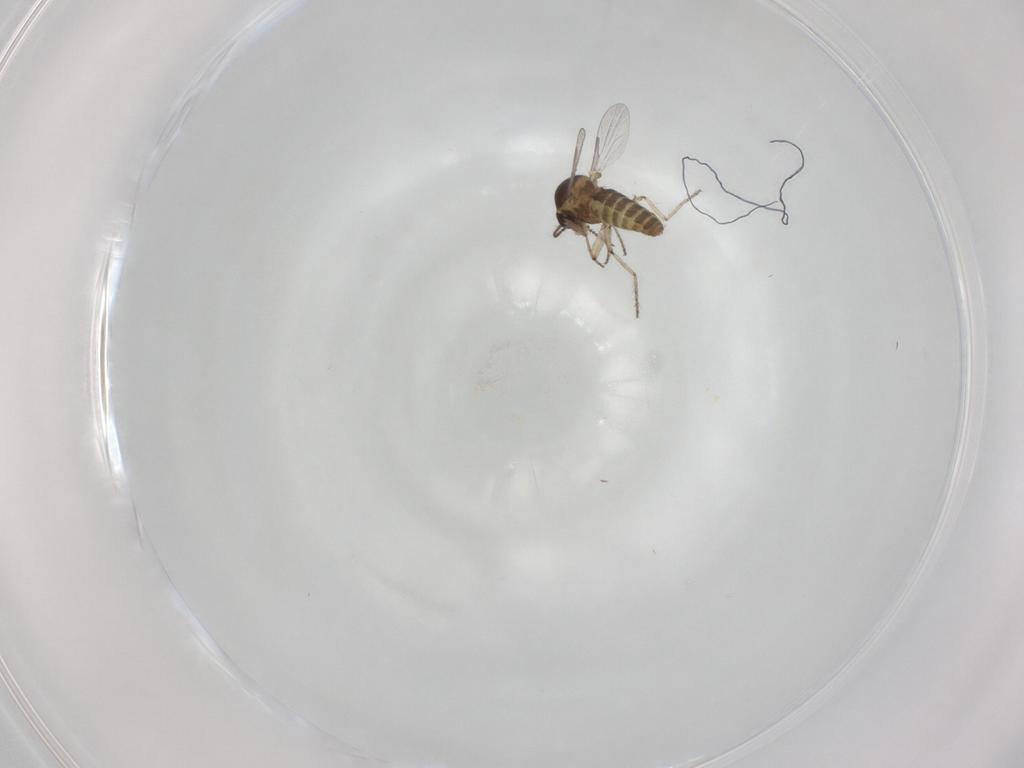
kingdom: Animalia
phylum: Arthropoda
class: Insecta
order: Diptera
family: Ceratopogonidae
